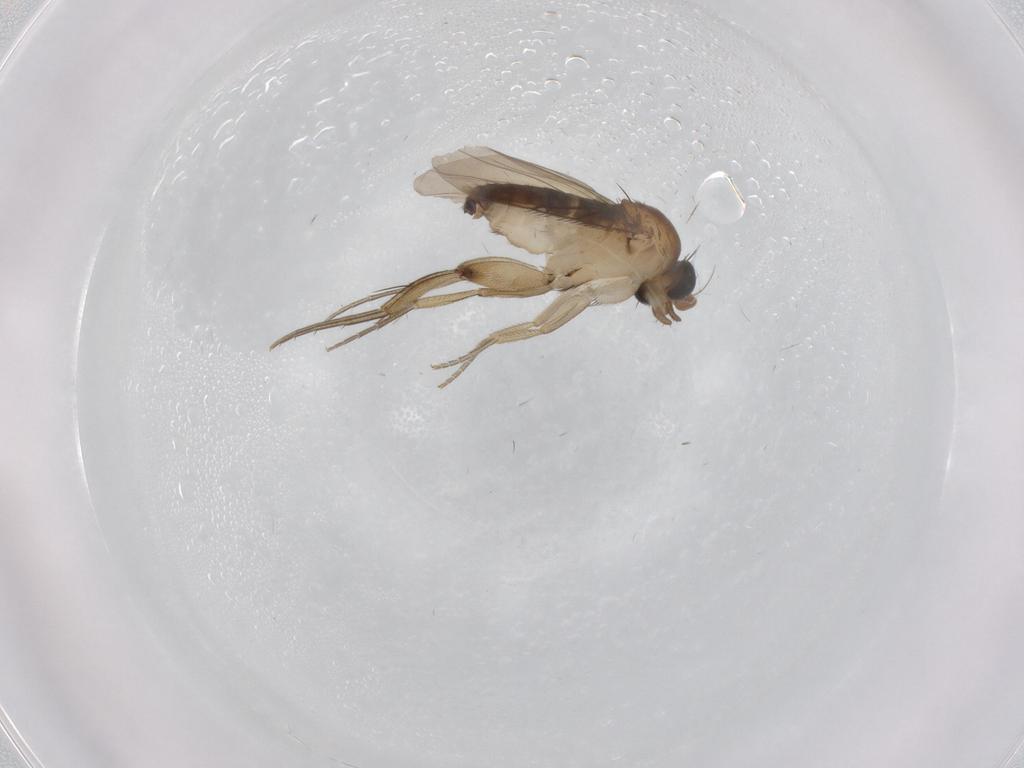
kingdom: Animalia
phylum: Arthropoda
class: Insecta
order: Diptera
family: Phoridae
